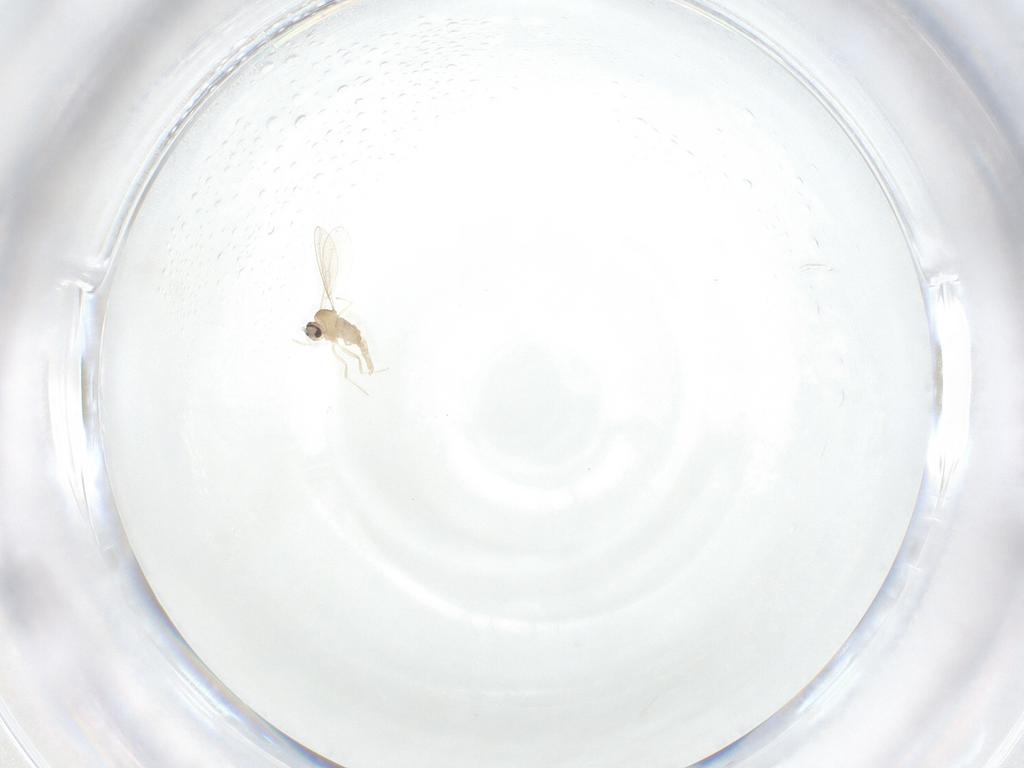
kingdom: Animalia
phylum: Arthropoda
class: Insecta
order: Diptera
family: Cecidomyiidae
